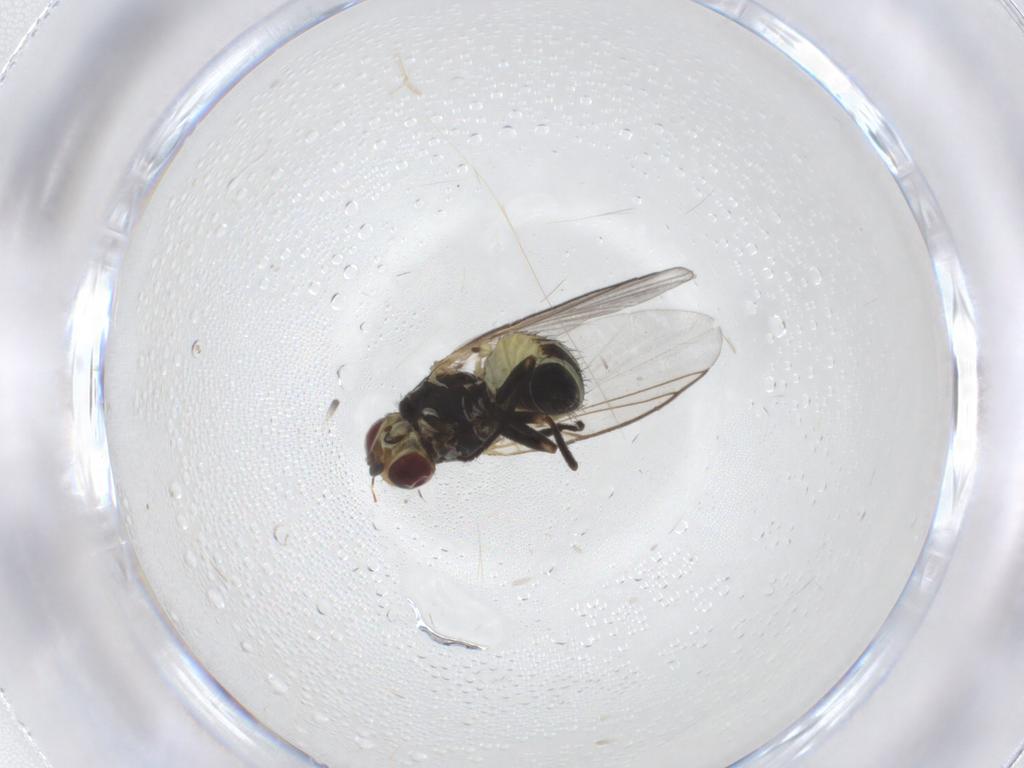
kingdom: Animalia
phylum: Arthropoda
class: Insecta
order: Diptera
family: Agromyzidae
